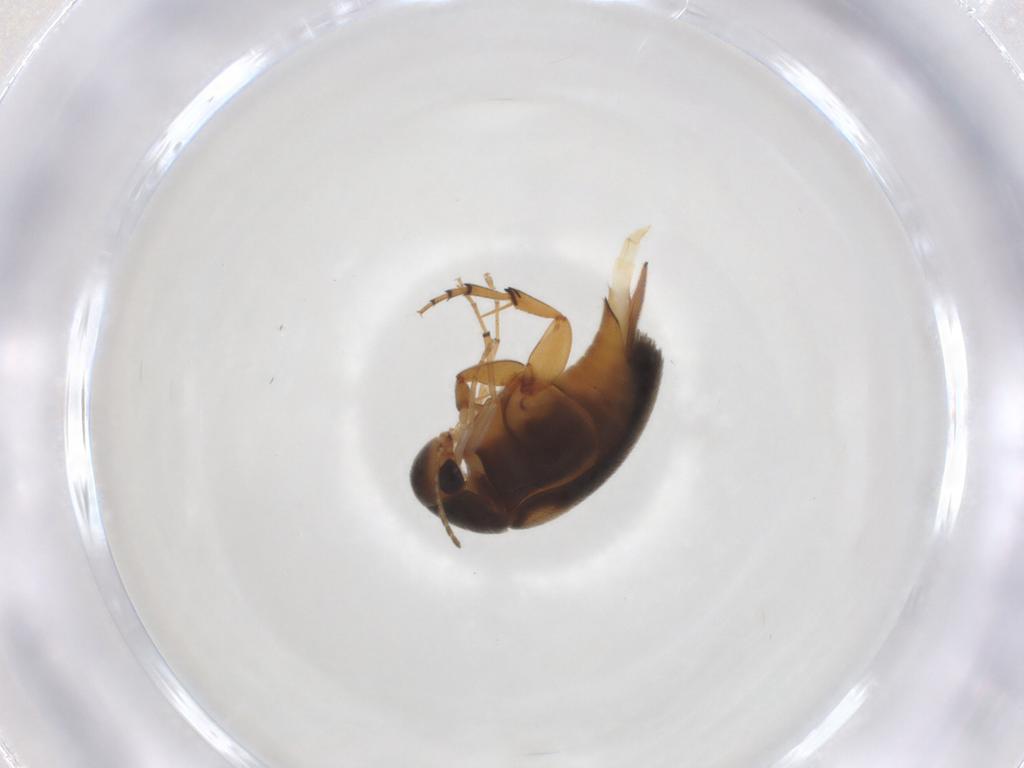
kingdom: Animalia
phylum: Arthropoda
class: Insecta
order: Coleoptera
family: Mordellidae
